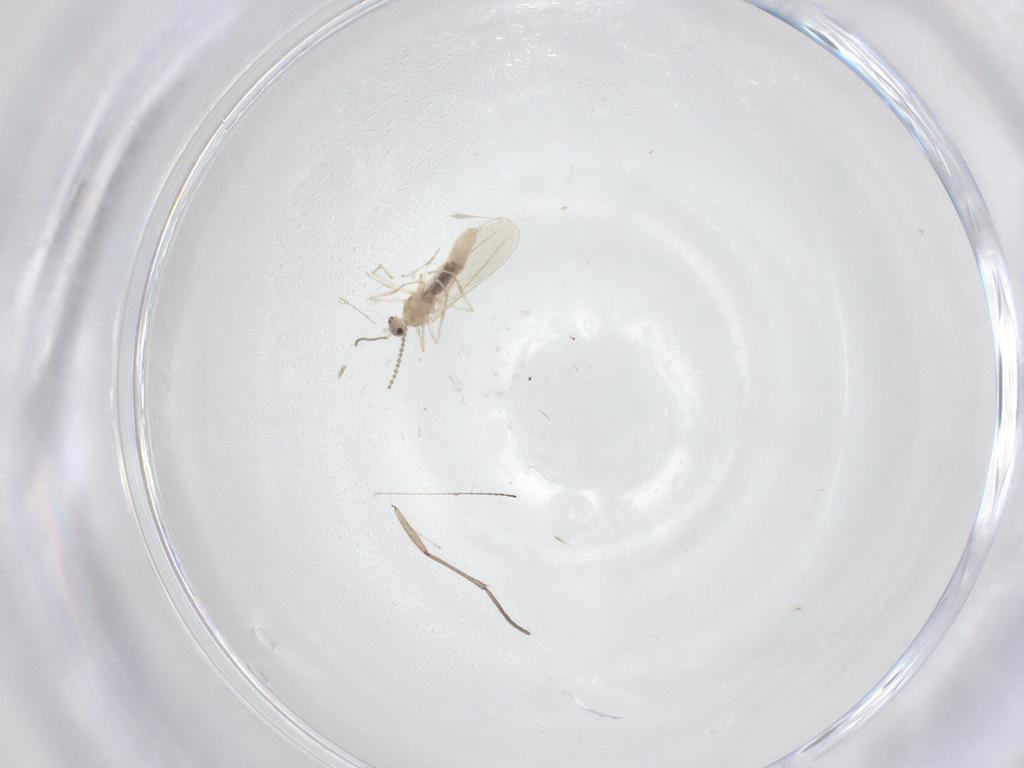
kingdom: Animalia
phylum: Arthropoda
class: Insecta
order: Diptera
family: Cecidomyiidae
